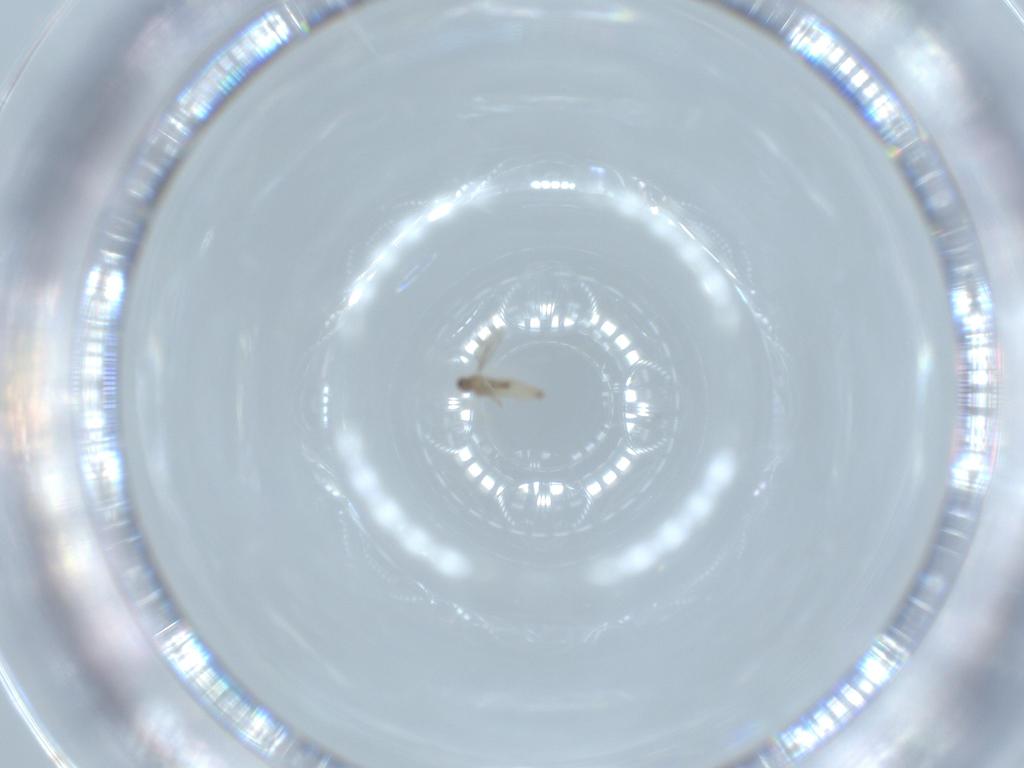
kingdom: Animalia
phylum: Arthropoda
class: Insecta
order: Diptera
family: Cecidomyiidae
